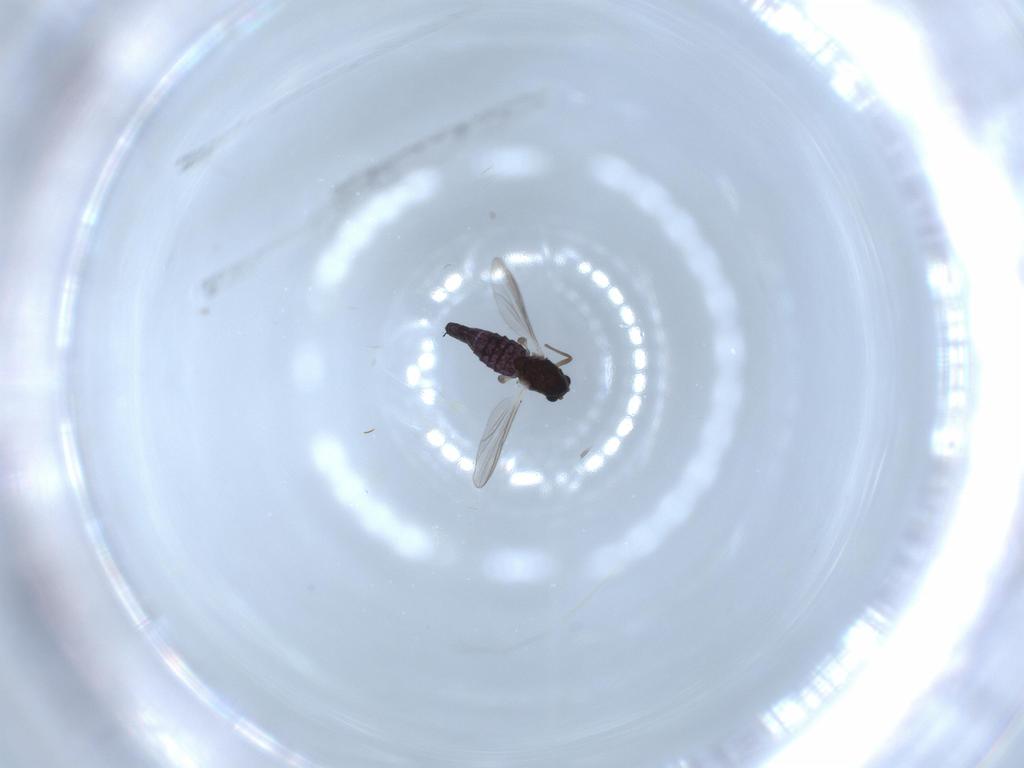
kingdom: Animalia
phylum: Arthropoda
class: Insecta
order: Diptera
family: Chironomidae
